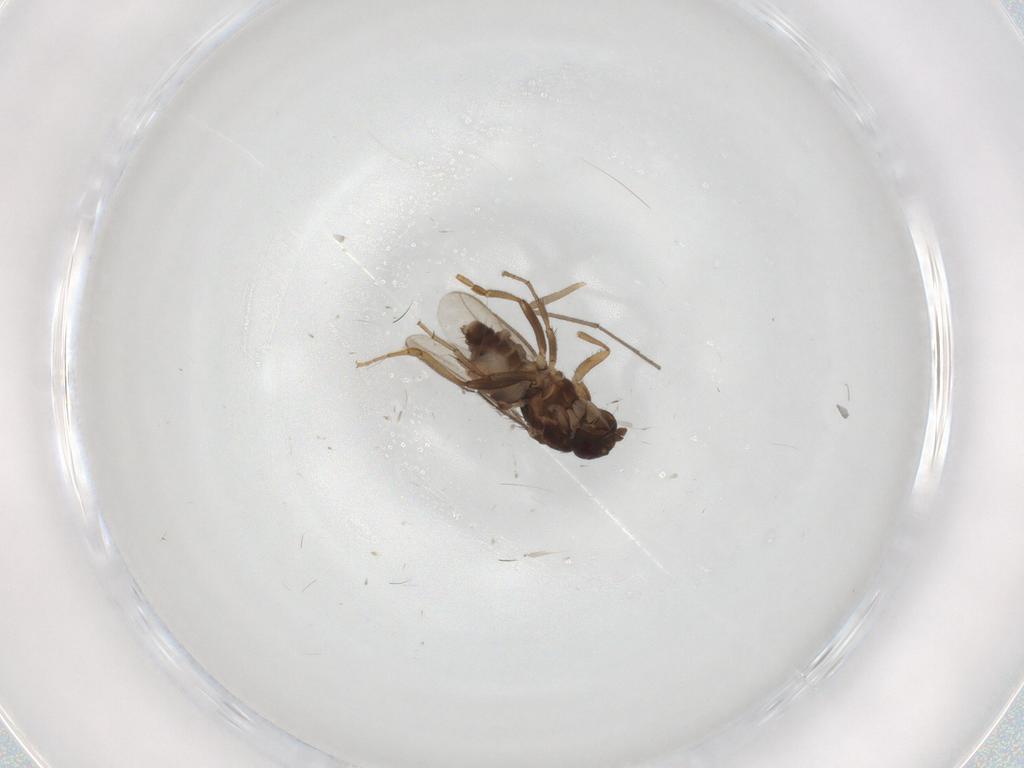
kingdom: Animalia
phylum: Arthropoda
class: Insecta
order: Diptera
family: Sphaeroceridae
